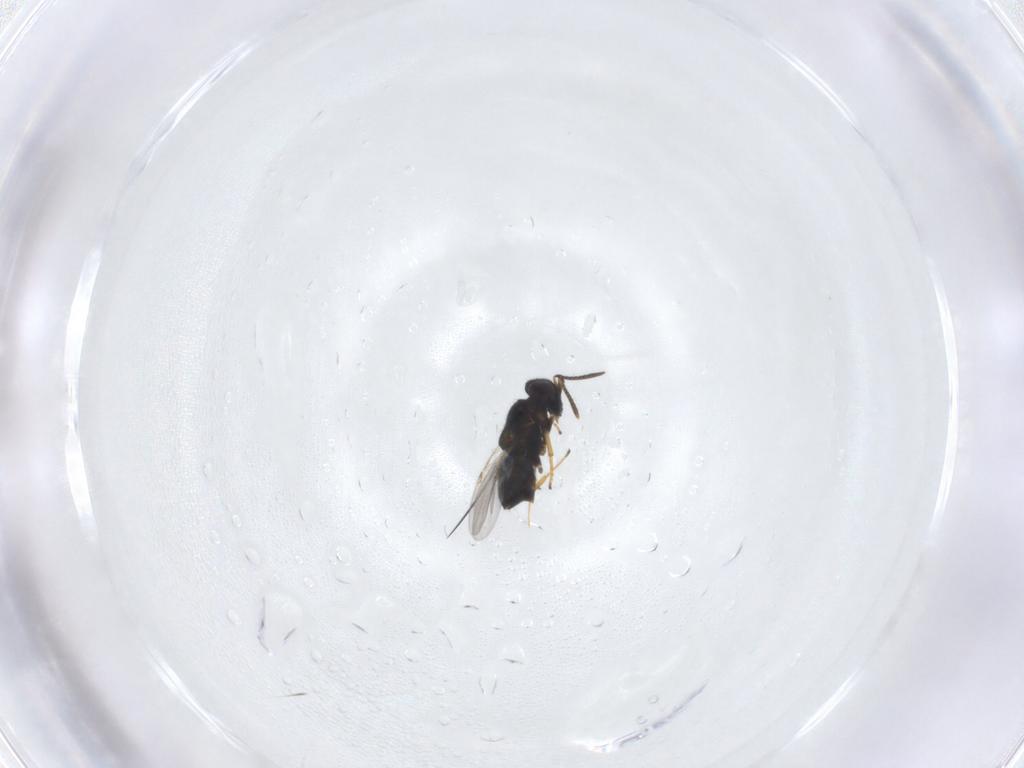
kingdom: Animalia
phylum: Arthropoda
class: Insecta
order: Hymenoptera
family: Encyrtidae
